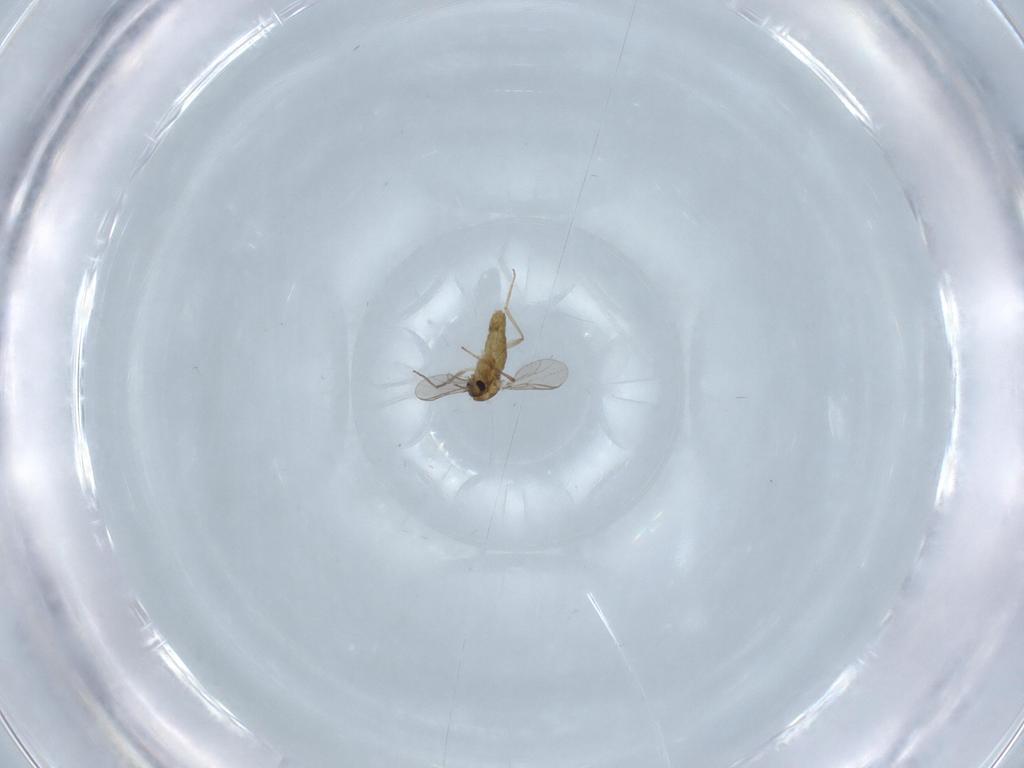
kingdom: Animalia
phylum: Arthropoda
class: Insecta
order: Diptera
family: Chironomidae
